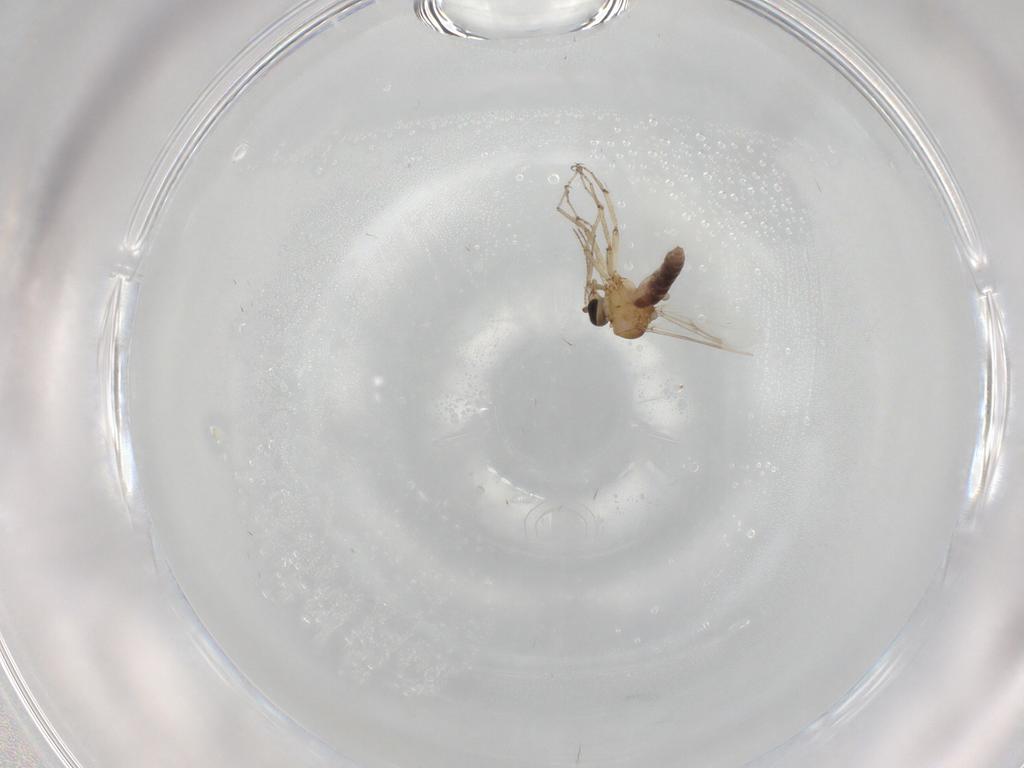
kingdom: Animalia
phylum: Arthropoda
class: Insecta
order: Diptera
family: Ceratopogonidae
